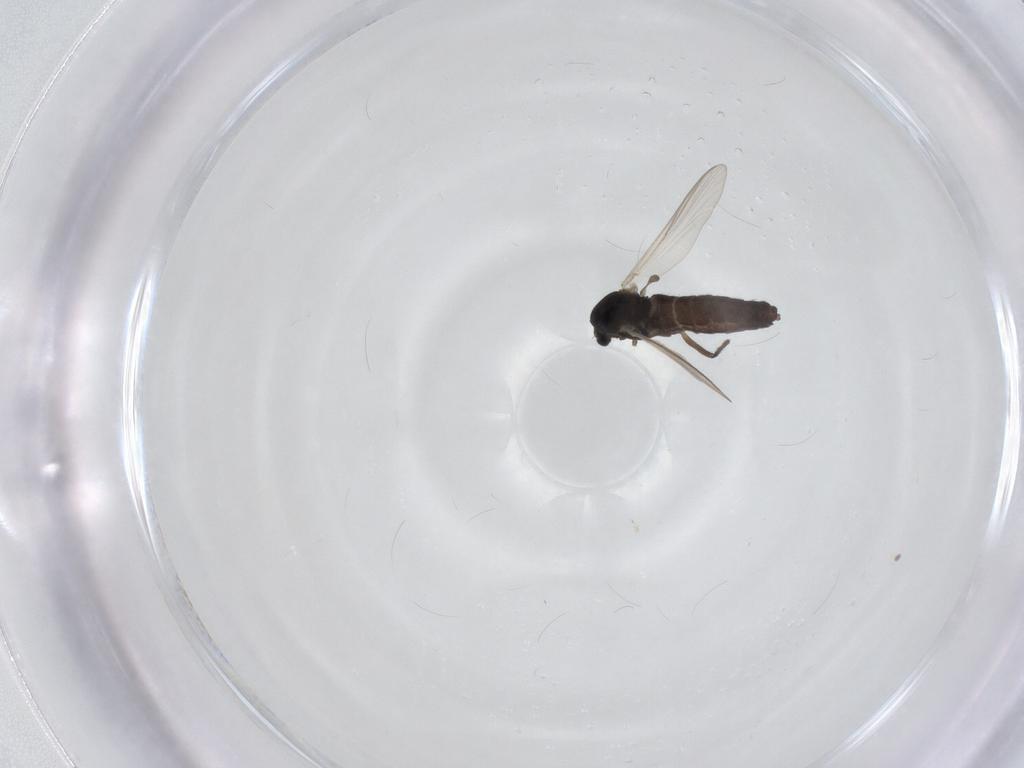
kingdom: Animalia
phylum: Arthropoda
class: Insecta
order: Diptera
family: Chironomidae
